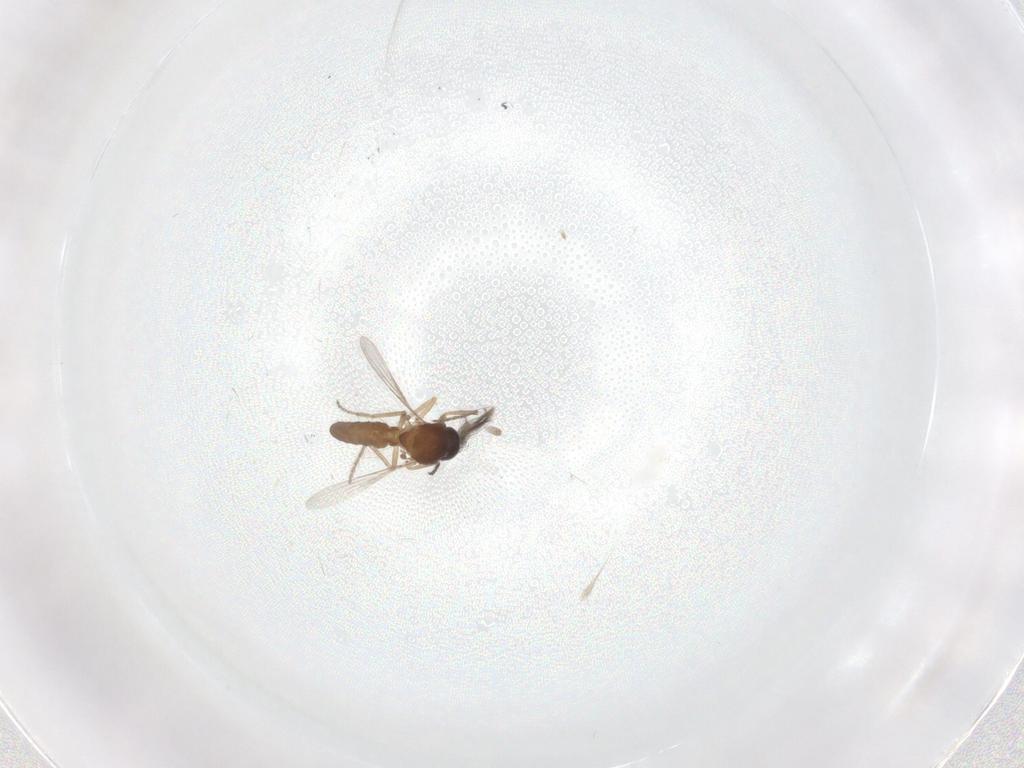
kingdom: Animalia
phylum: Arthropoda
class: Insecta
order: Diptera
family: Ceratopogonidae
